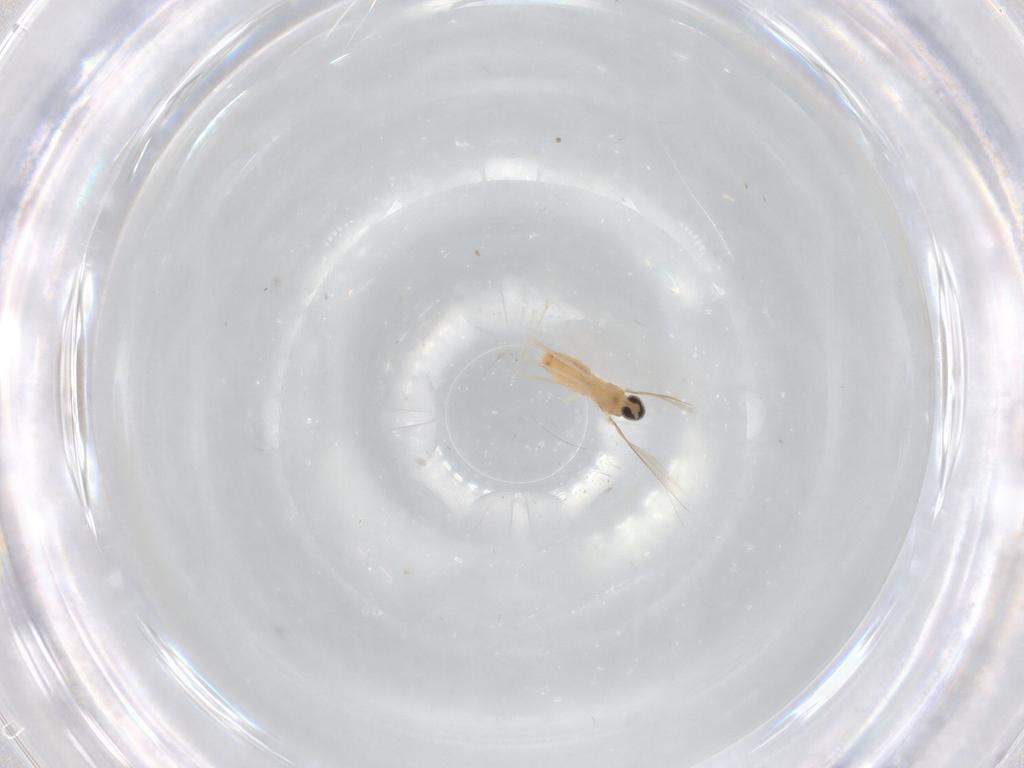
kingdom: Animalia
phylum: Arthropoda
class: Insecta
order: Diptera
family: Cecidomyiidae
